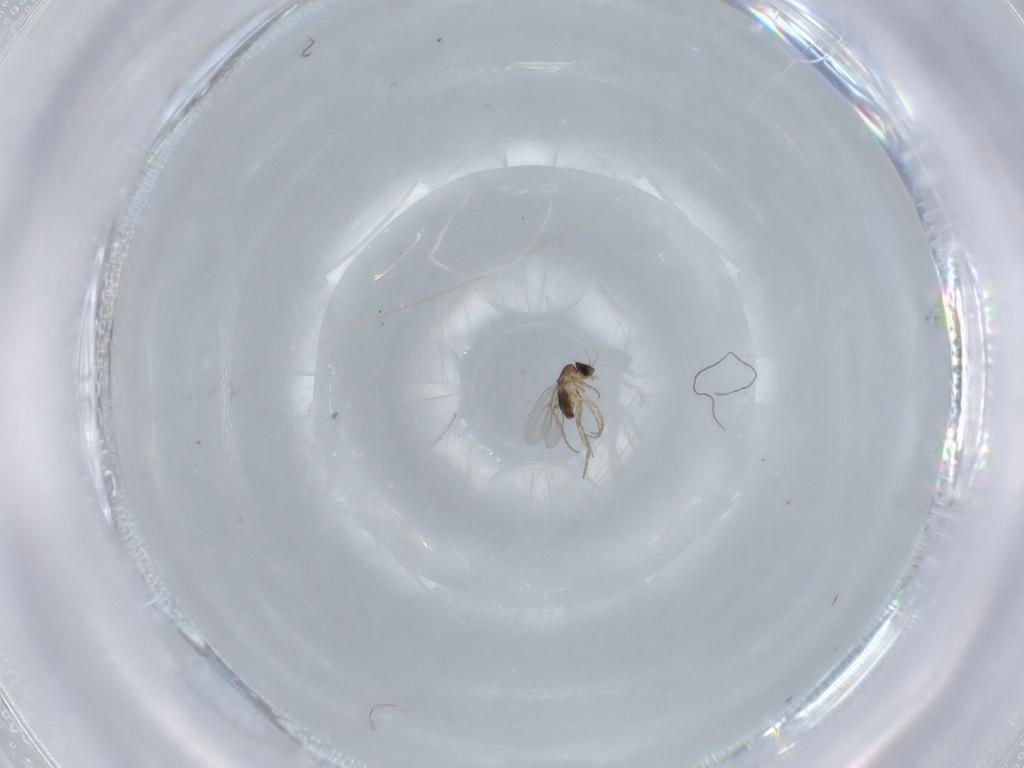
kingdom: Animalia
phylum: Arthropoda
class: Insecta
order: Diptera
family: Phoridae
